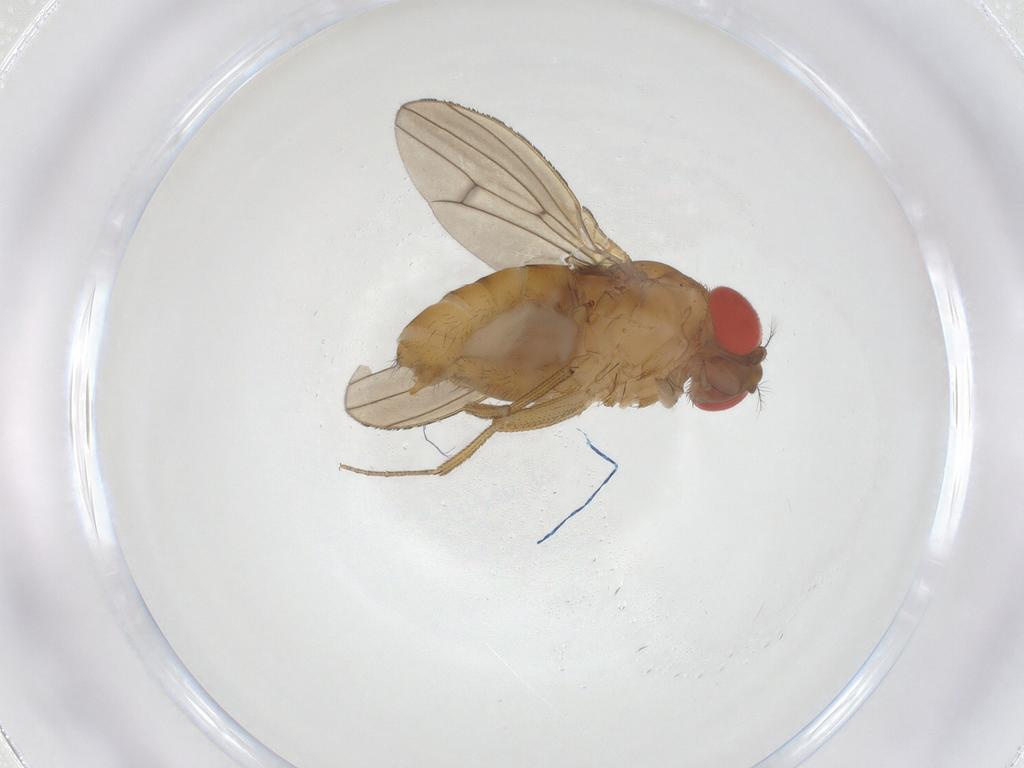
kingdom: Animalia
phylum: Arthropoda
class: Insecta
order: Diptera
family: Drosophilidae
